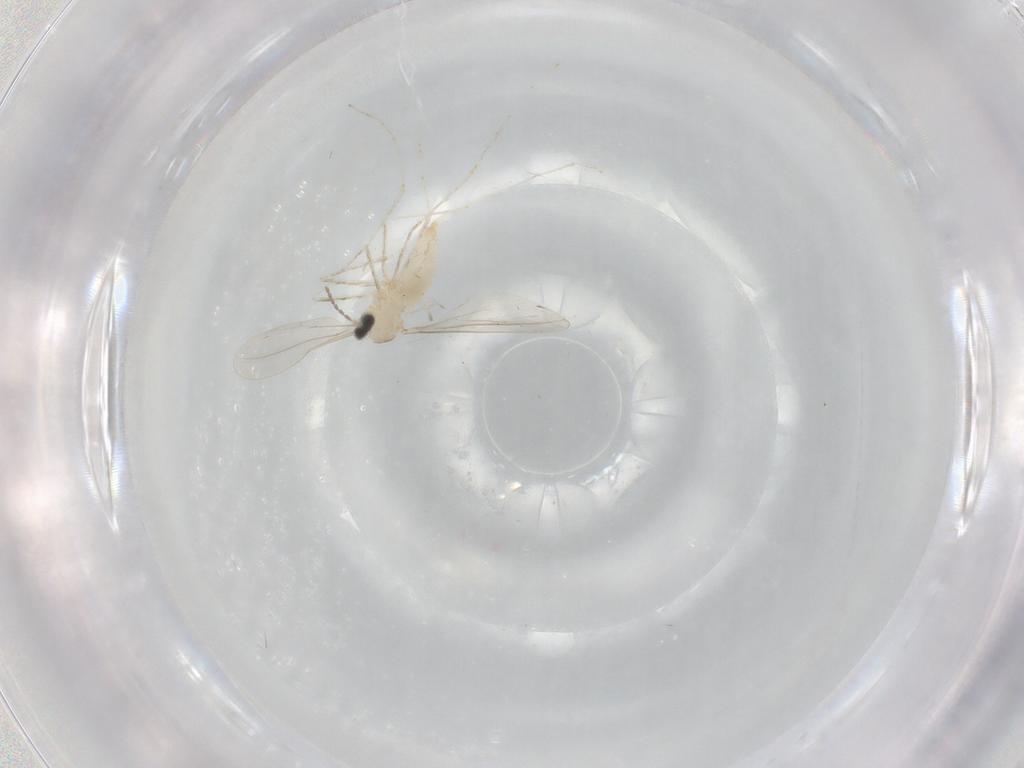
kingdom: Animalia
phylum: Arthropoda
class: Insecta
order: Diptera
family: Cecidomyiidae
